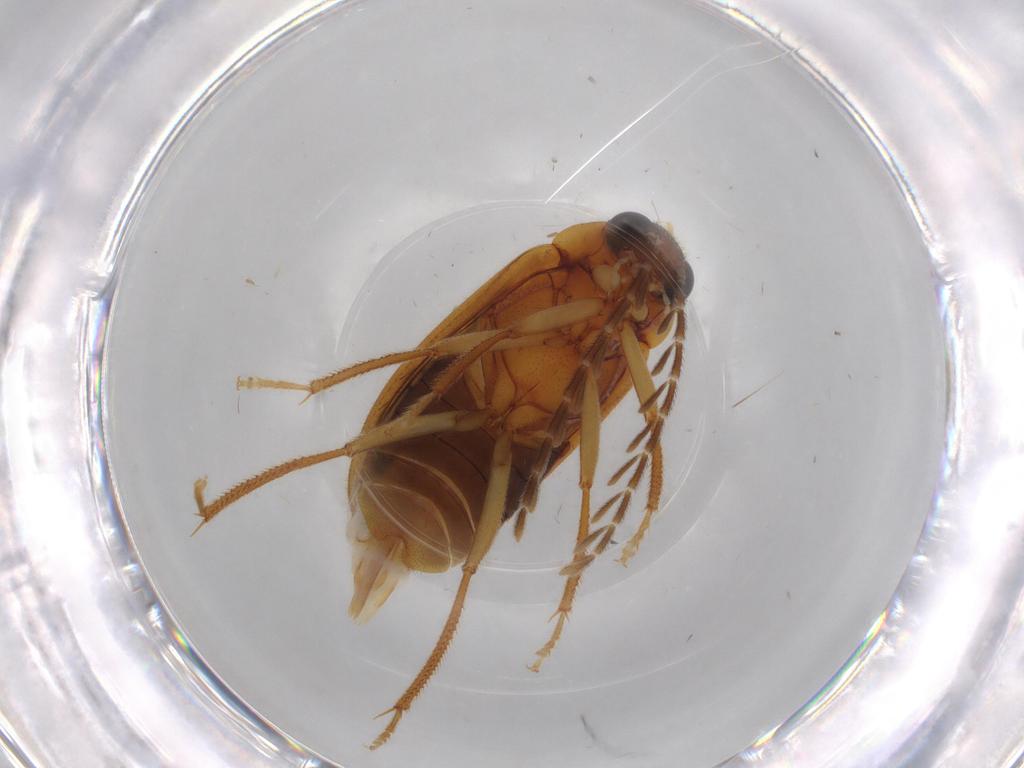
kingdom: Animalia
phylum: Arthropoda
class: Insecta
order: Coleoptera
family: Ptilodactylidae
